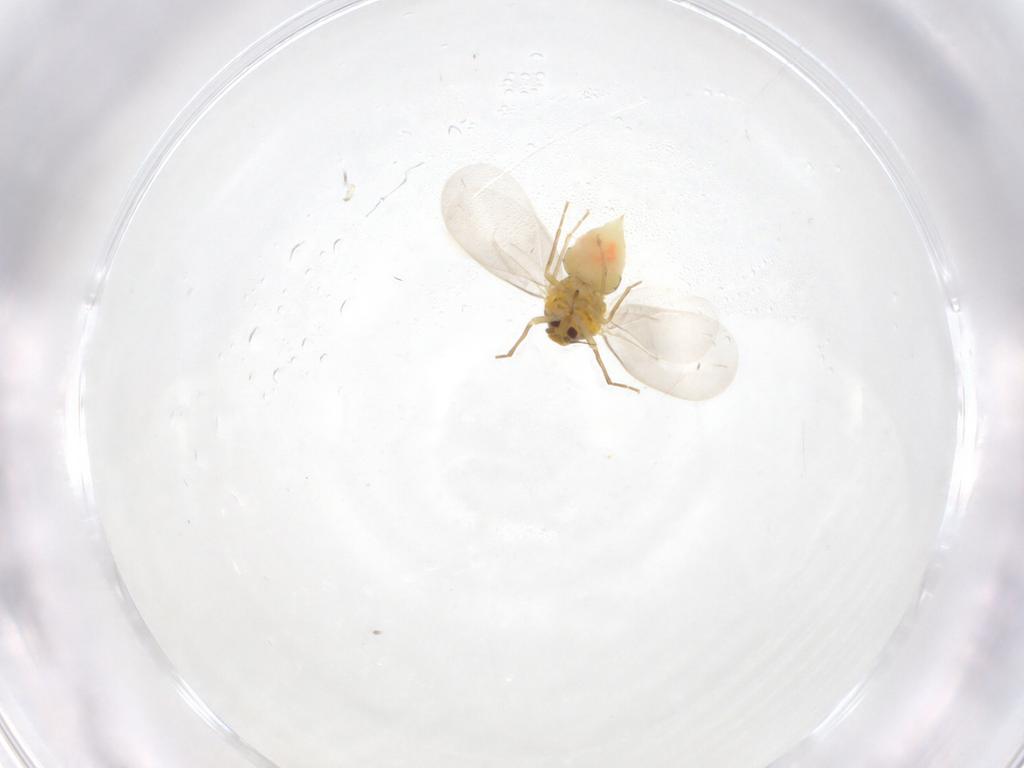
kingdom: Animalia
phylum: Arthropoda
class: Insecta
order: Hemiptera
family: Aleyrodidae
